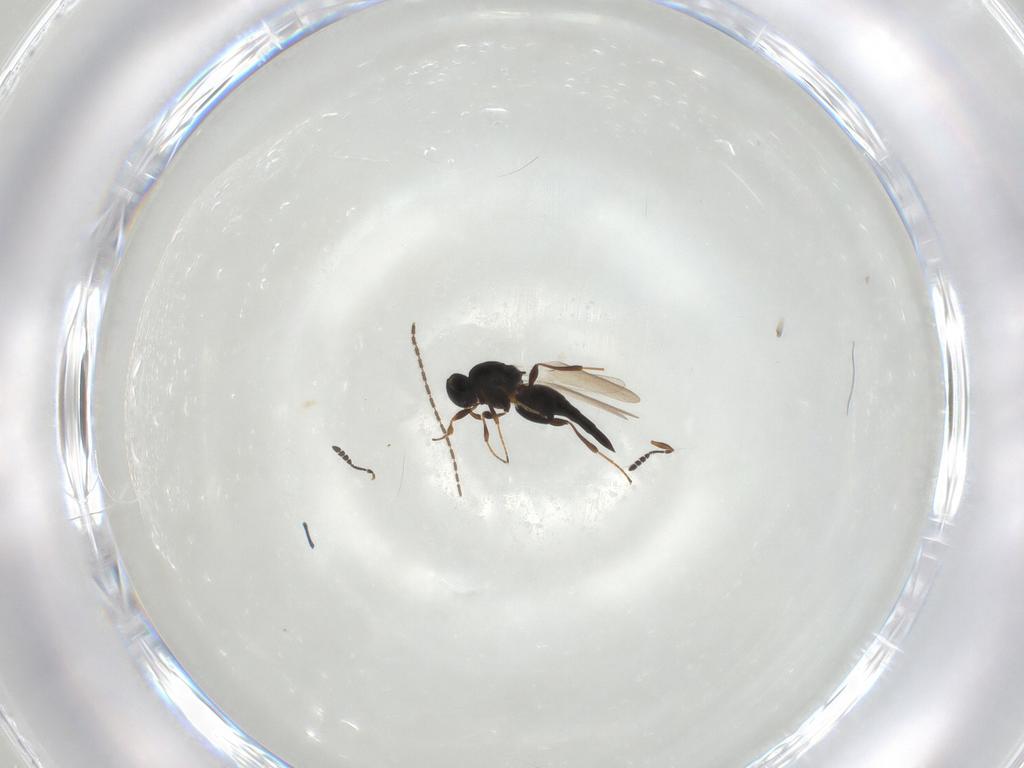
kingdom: Animalia
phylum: Arthropoda
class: Insecta
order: Hymenoptera
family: Platygastridae
